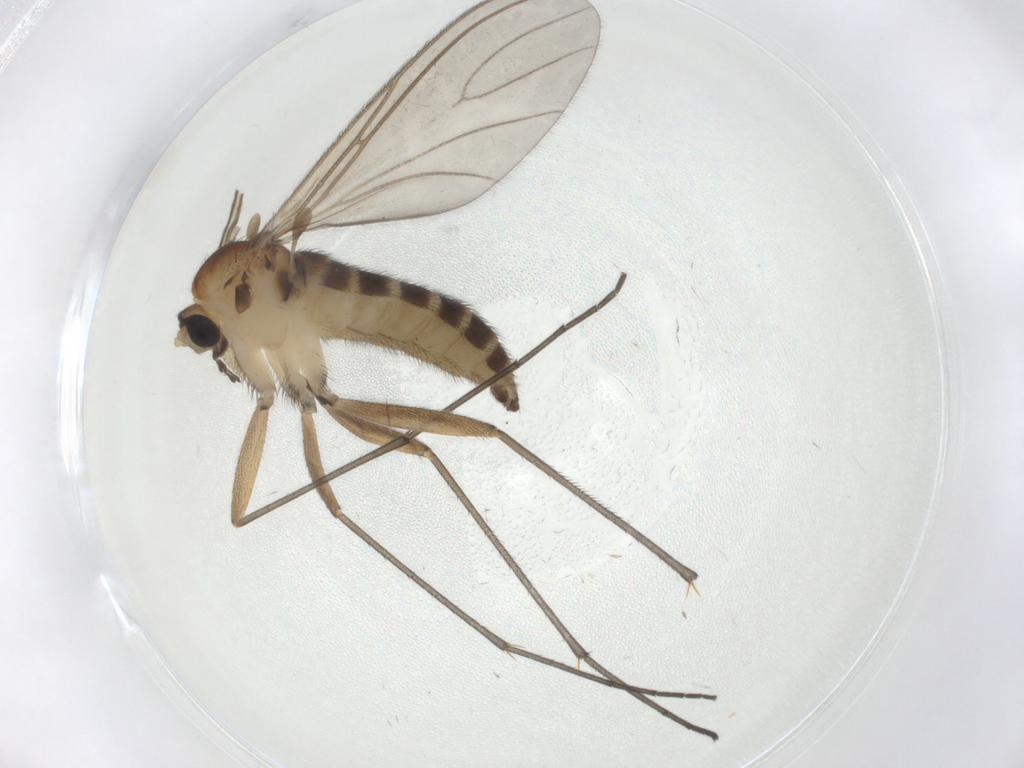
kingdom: Animalia
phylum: Arthropoda
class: Insecta
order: Diptera
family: Sciaridae
